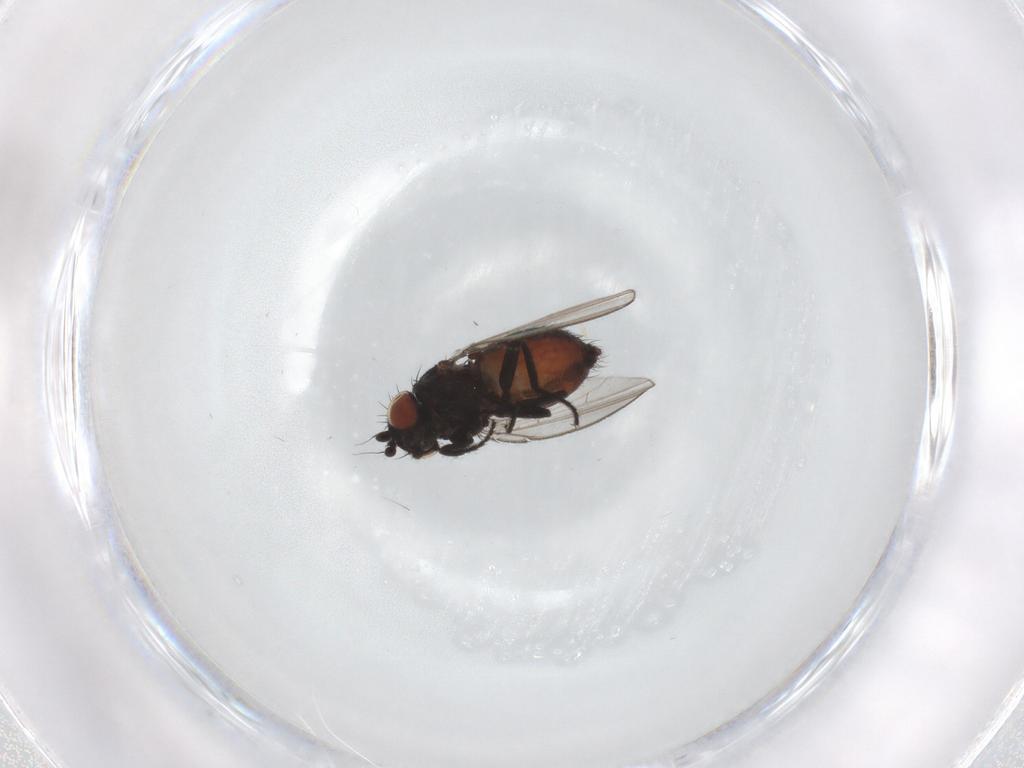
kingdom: Animalia
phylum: Arthropoda
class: Insecta
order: Diptera
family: Milichiidae
